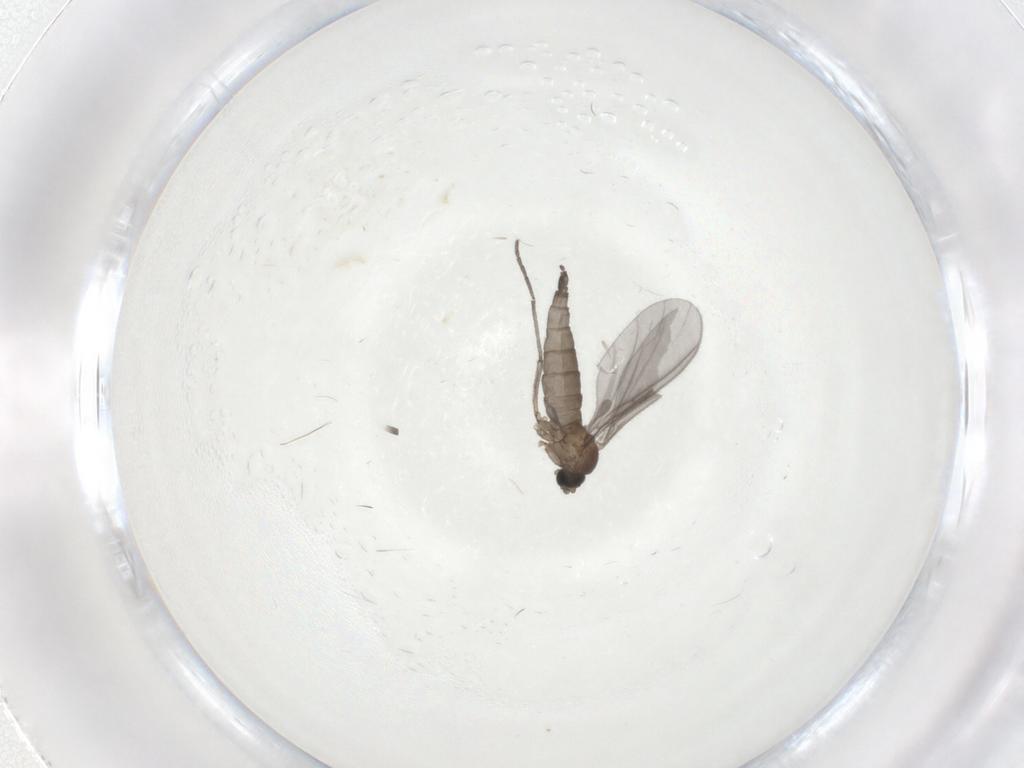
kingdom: Animalia
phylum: Arthropoda
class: Insecta
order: Diptera
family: Sciaridae
